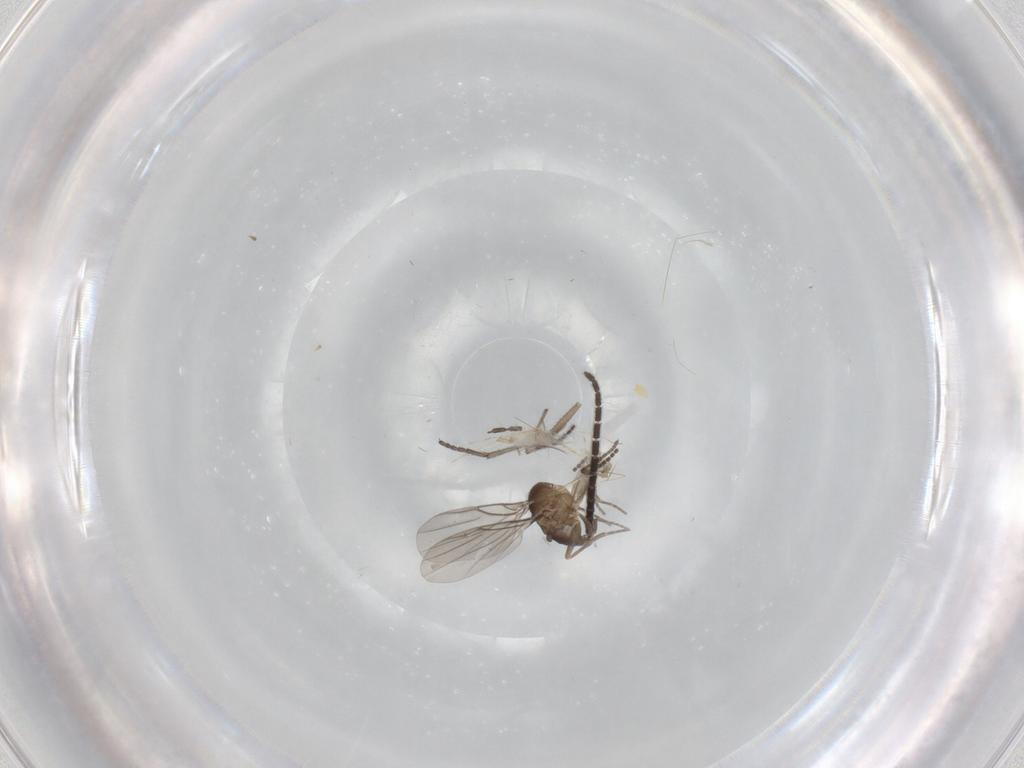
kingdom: Animalia
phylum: Arthropoda
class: Insecta
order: Diptera
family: Sciaridae
